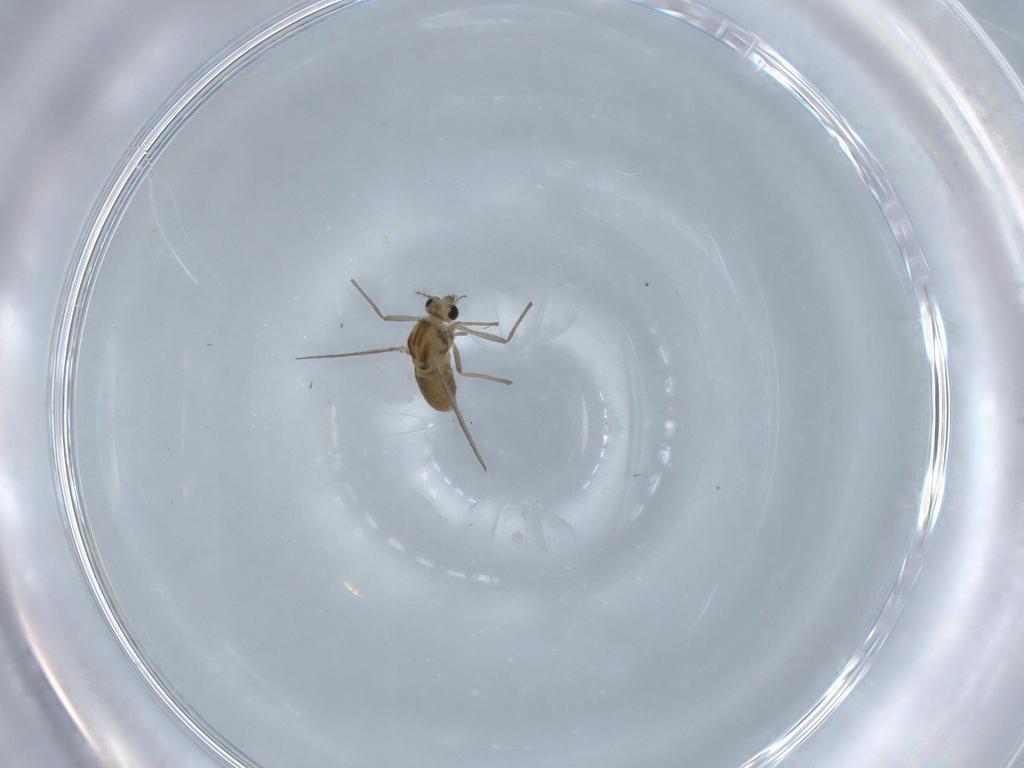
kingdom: Animalia
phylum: Arthropoda
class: Insecta
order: Diptera
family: Chironomidae
